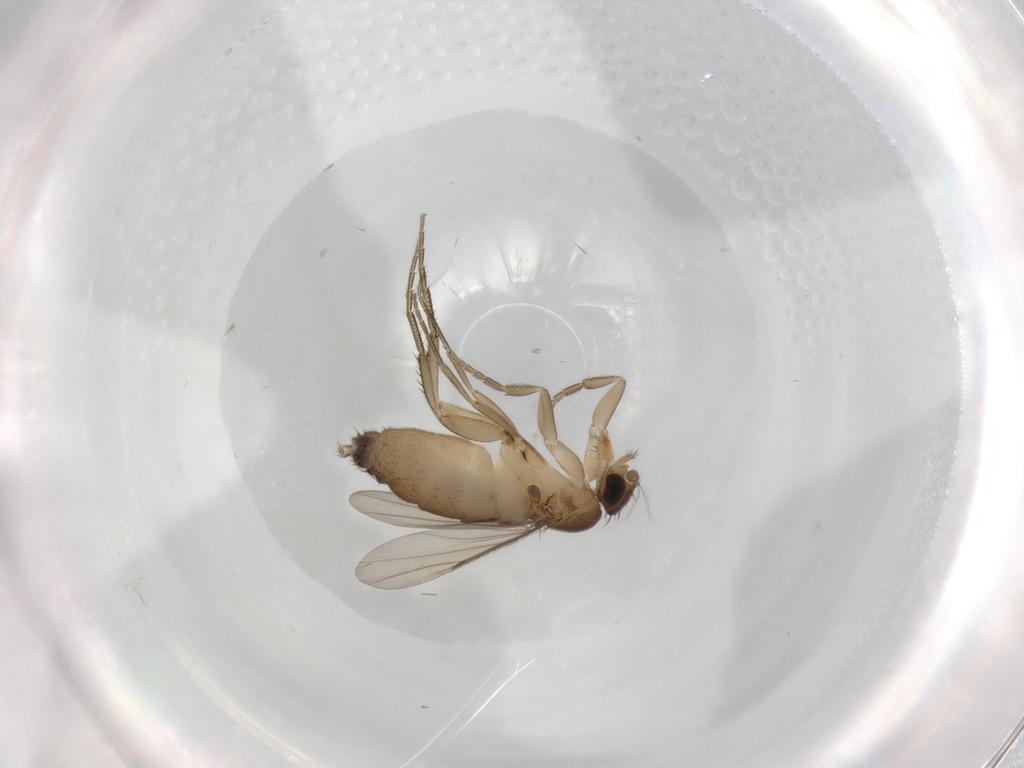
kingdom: Animalia
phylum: Arthropoda
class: Insecta
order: Diptera
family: Phoridae
